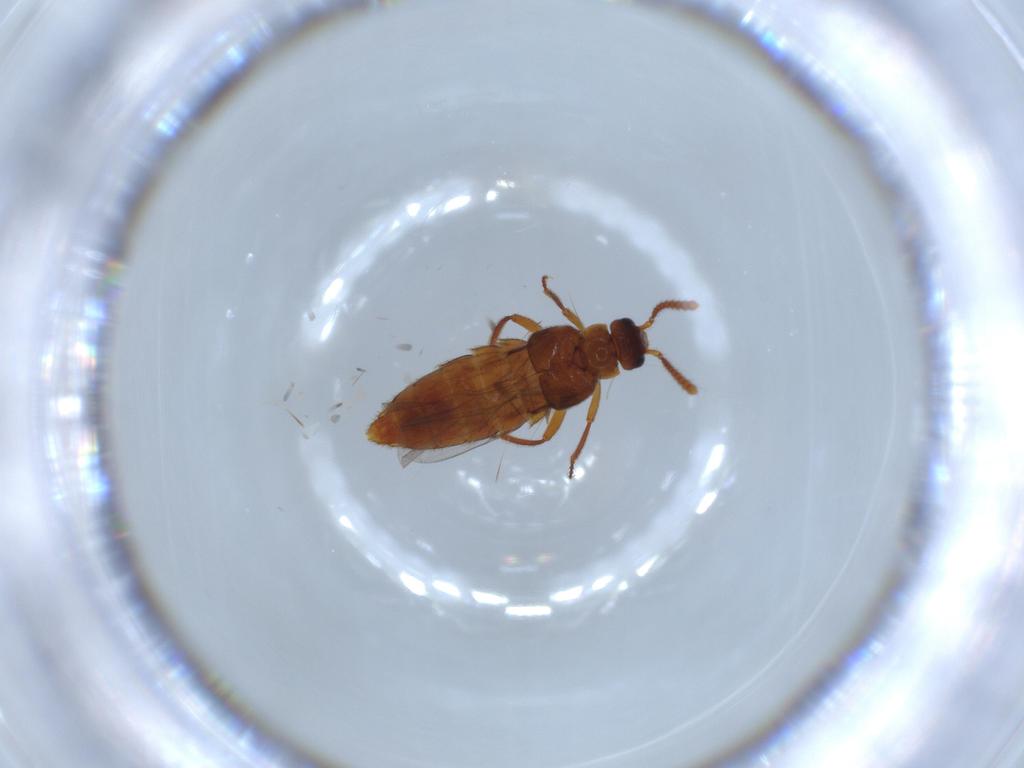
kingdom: Animalia
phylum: Arthropoda
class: Insecta
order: Coleoptera
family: Staphylinidae
